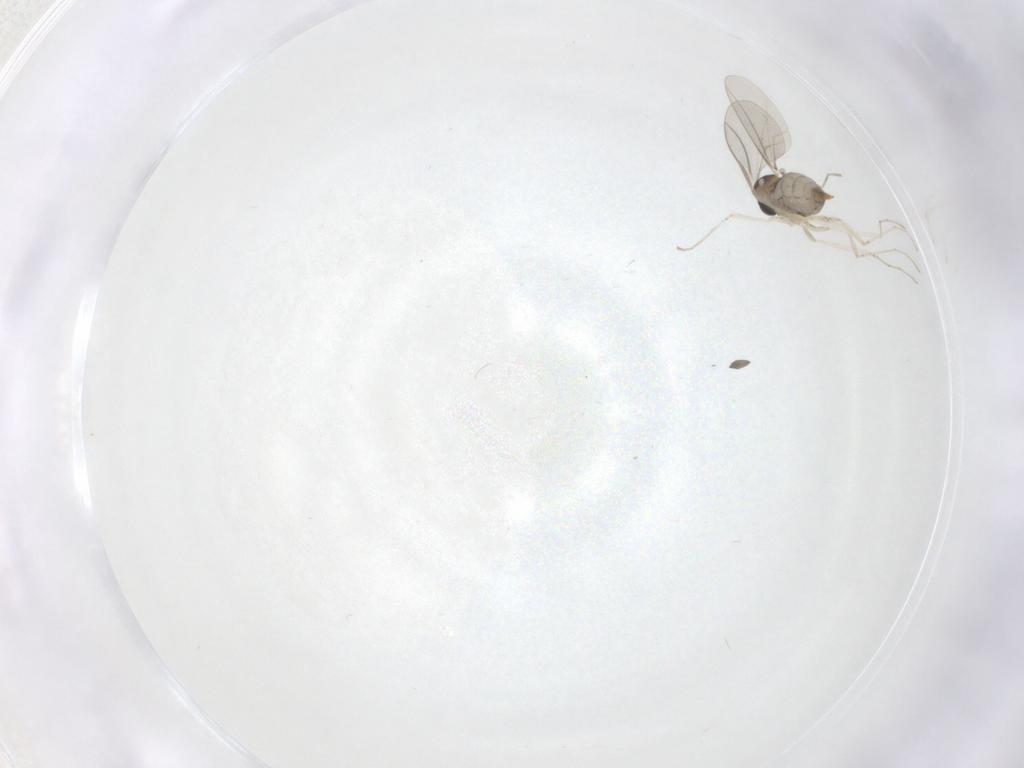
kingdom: Animalia
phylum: Arthropoda
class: Insecta
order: Diptera
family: Cecidomyiidae
